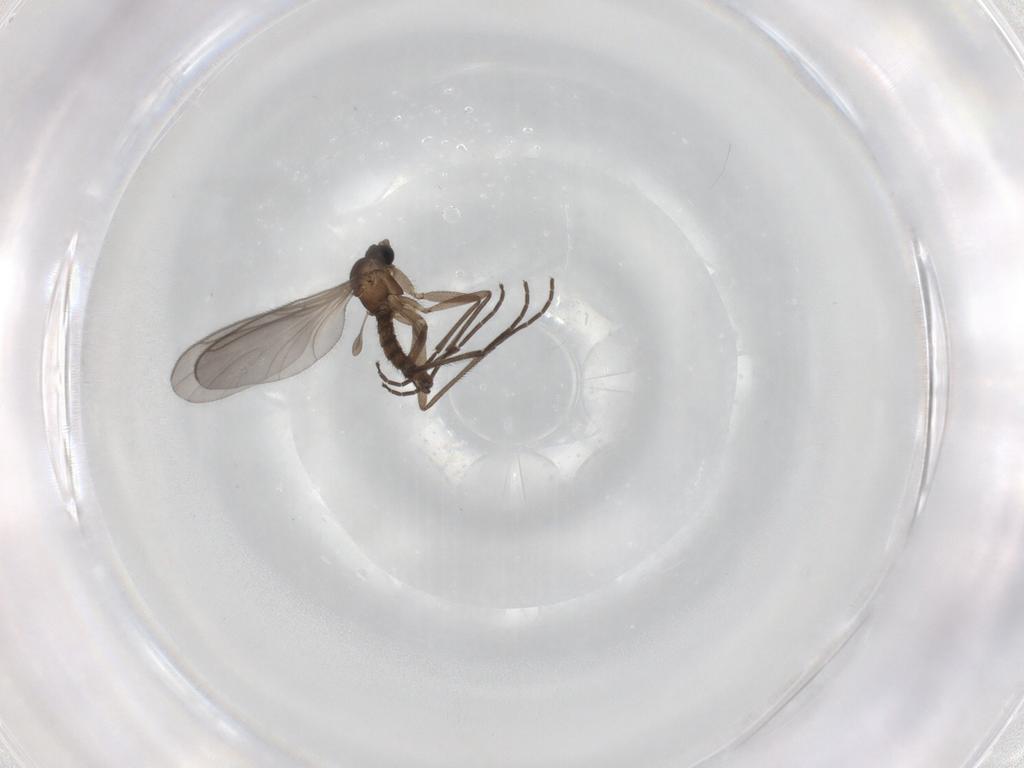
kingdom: Animalia
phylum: Arthropoda
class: Insecta
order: Diptera
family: Sciaridae
